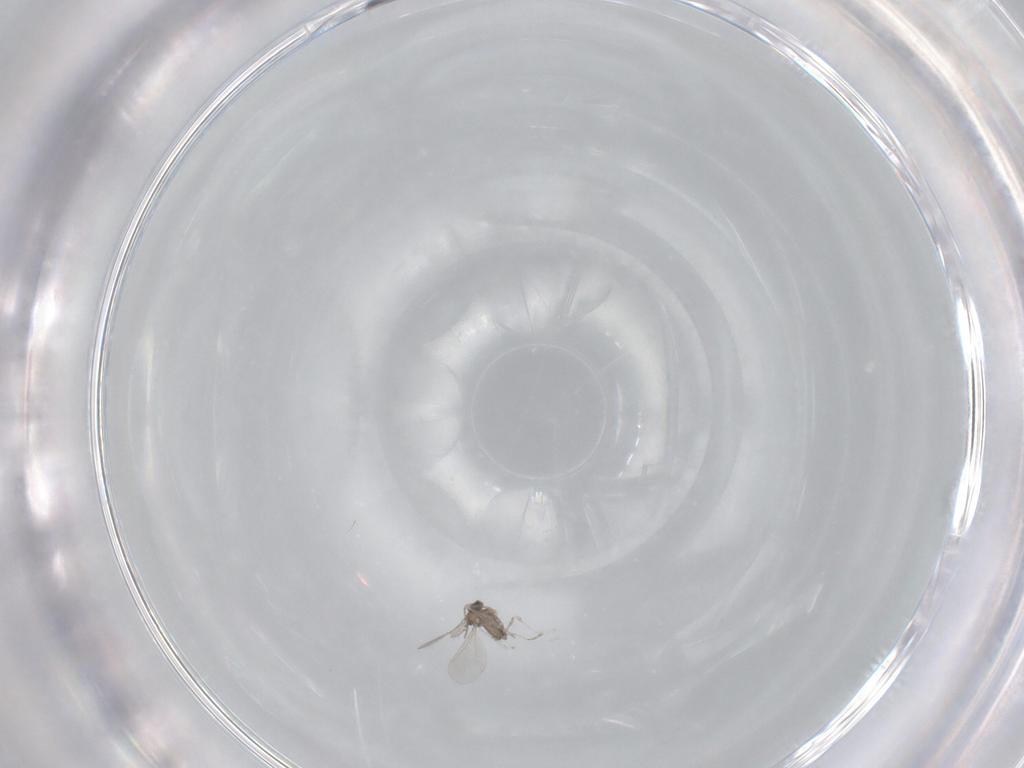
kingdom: Animalia
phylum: Arthropoda
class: Insecta
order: Diptera
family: Cecidomyiidae
